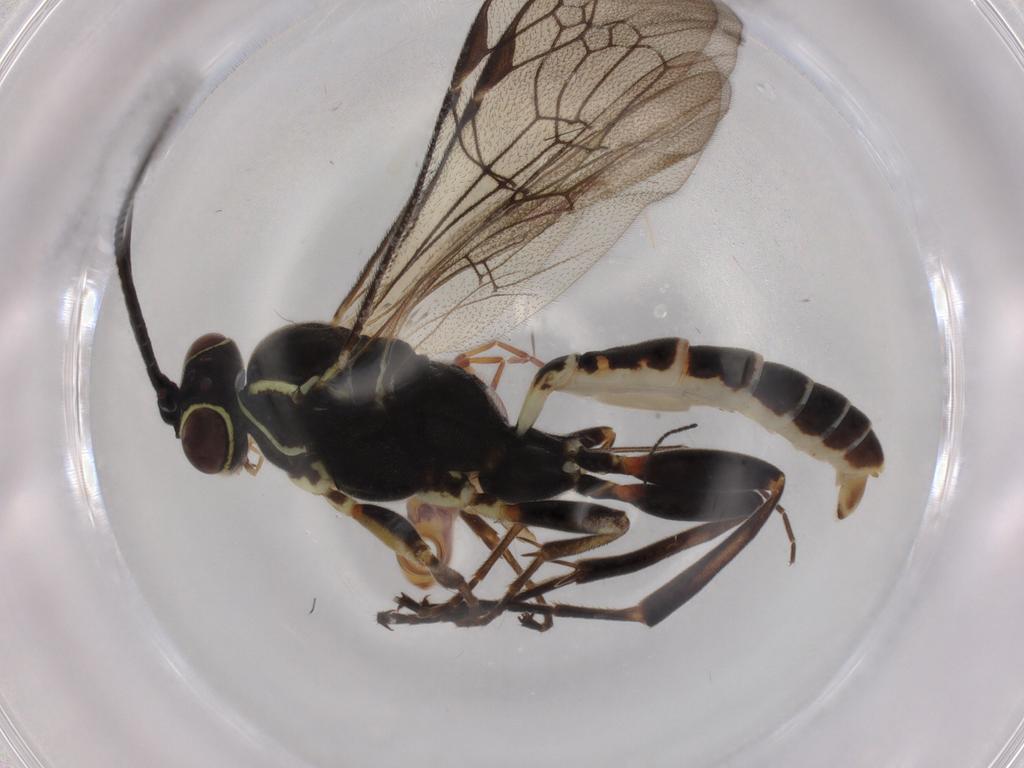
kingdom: Animalia
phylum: Arthropoda
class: Insecta
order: Hymenoptera
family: Ichneumonidae
